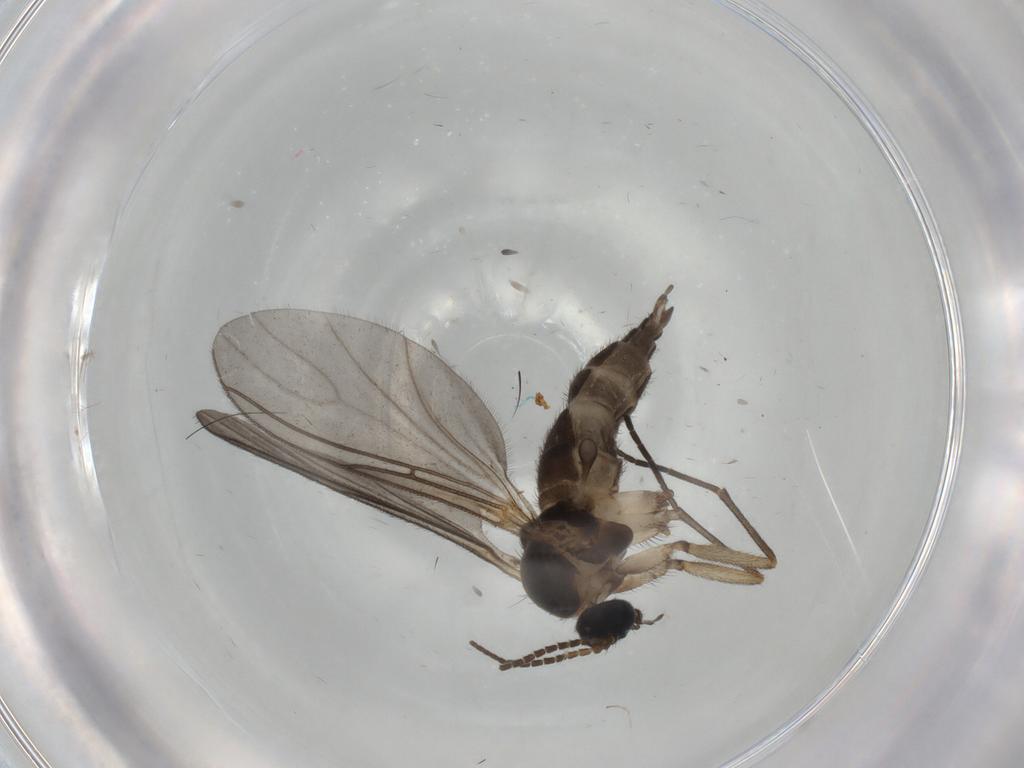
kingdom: Animalia
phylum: Arthropoda
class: Insecta
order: Diptera
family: Sciaridae
